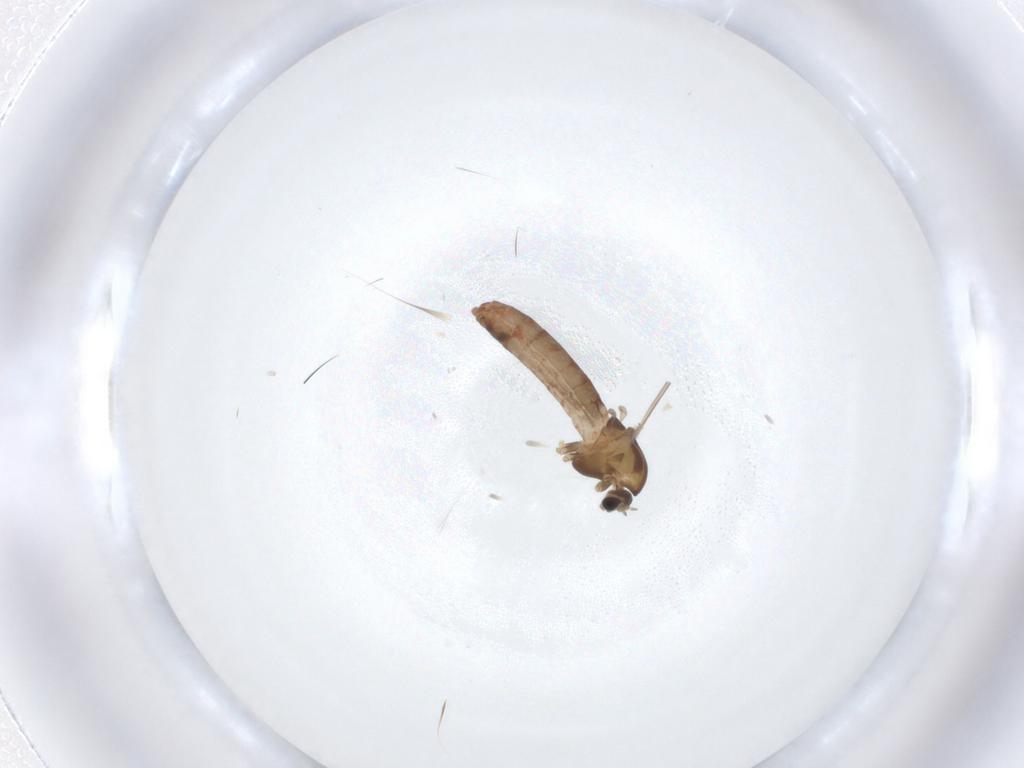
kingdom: Animalia
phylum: Arthropoda
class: Insecta
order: Diptera
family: Chironomidae
